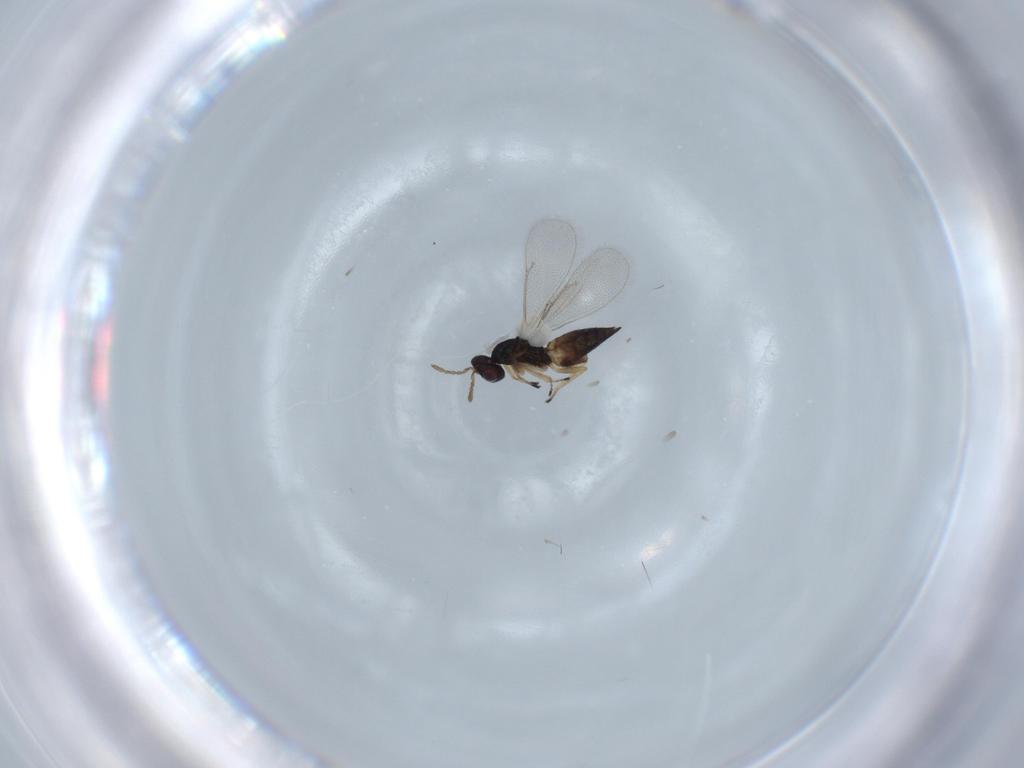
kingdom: Animalia
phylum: Arthropoda
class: Insecta
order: Hymenoptera
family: Eulophidae
